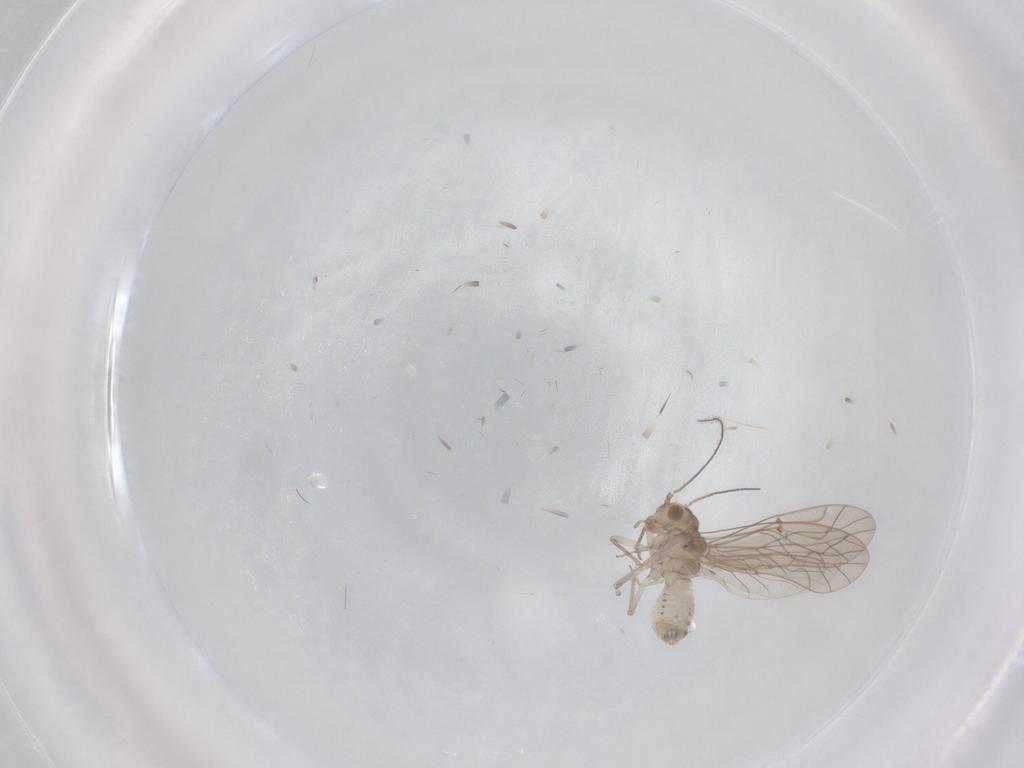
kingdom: Animalia
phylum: Arthropoda
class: Insecta
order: Psocodea
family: Lachesillidae
